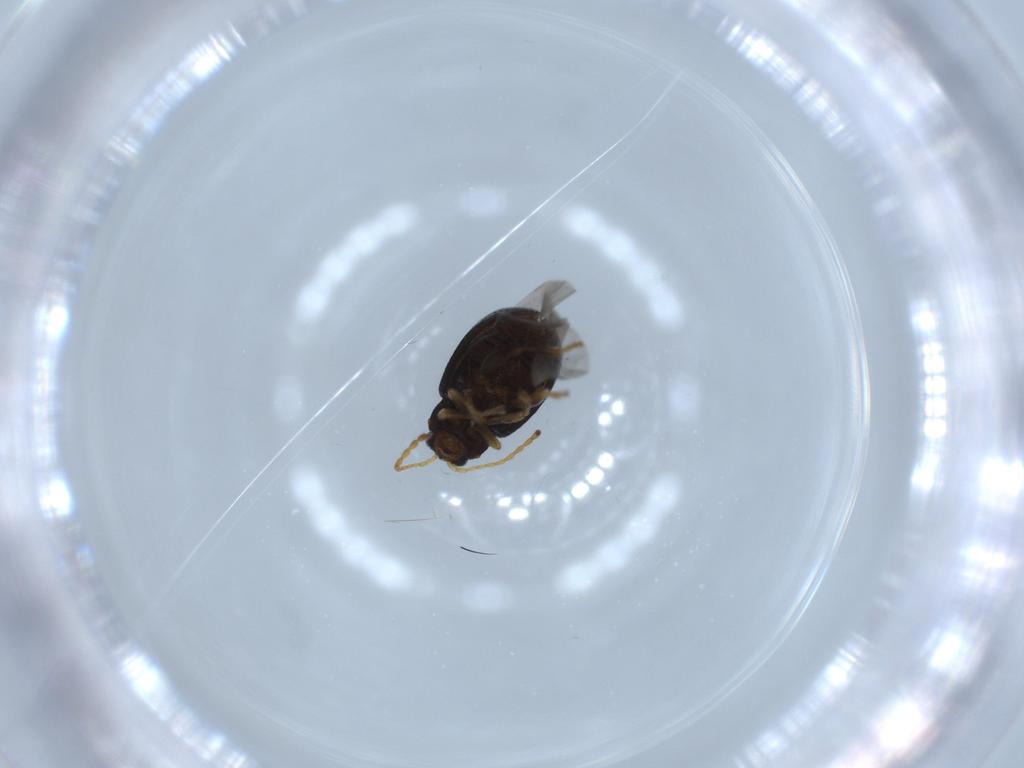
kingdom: Animalia
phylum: Arthropoda
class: Insecta
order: Coleoptera
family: Chrysomelidae
